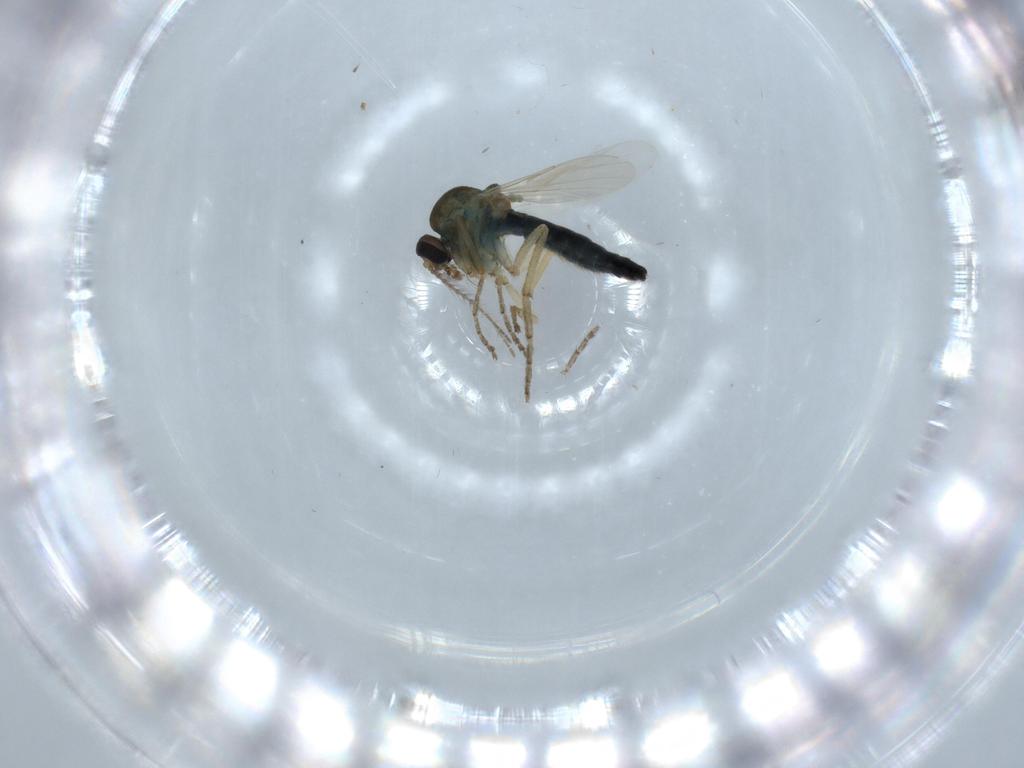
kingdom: Animalia
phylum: Arthropoda
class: Insecta
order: Diptera
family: Ceratopogonidae
